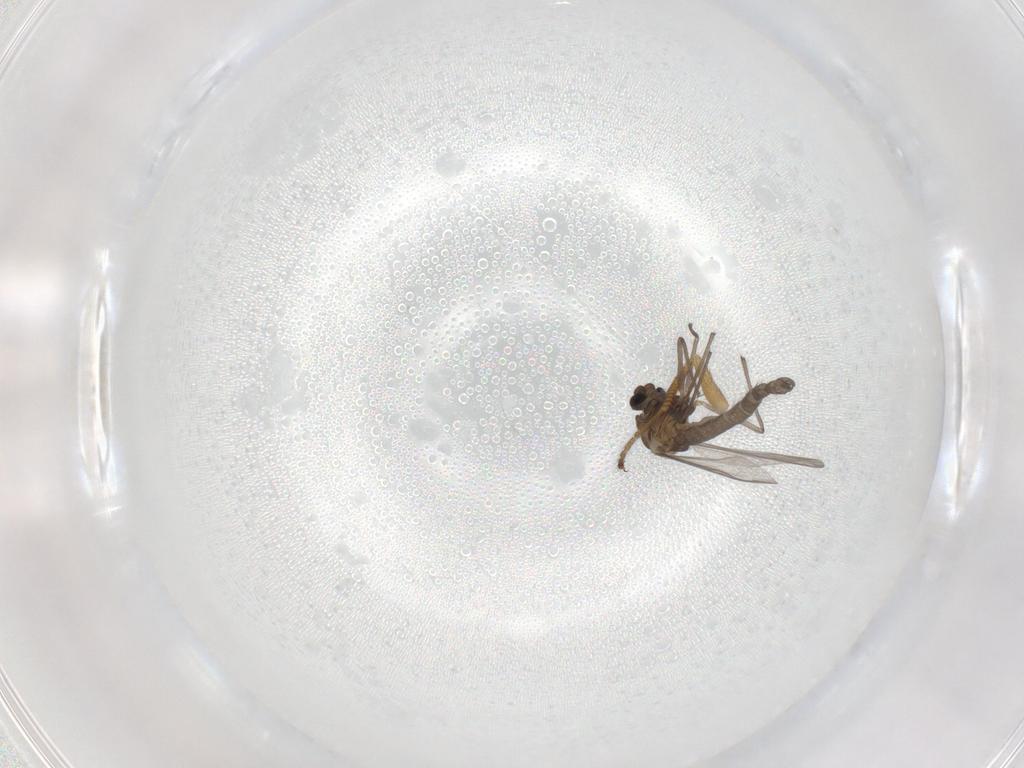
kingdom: Animalia
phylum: Arthropoda
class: Insecta
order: Diptera
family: Chironomidae
